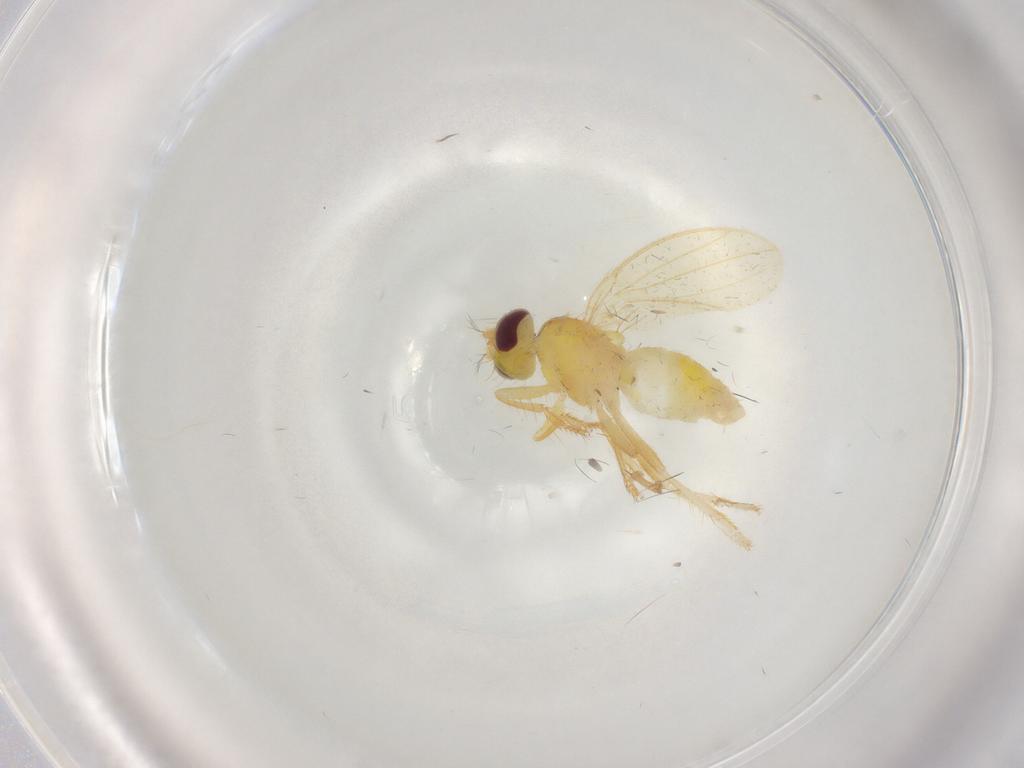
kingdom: Animalia
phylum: Arthropoda
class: Insecta
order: Diptera
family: Periscelididae
